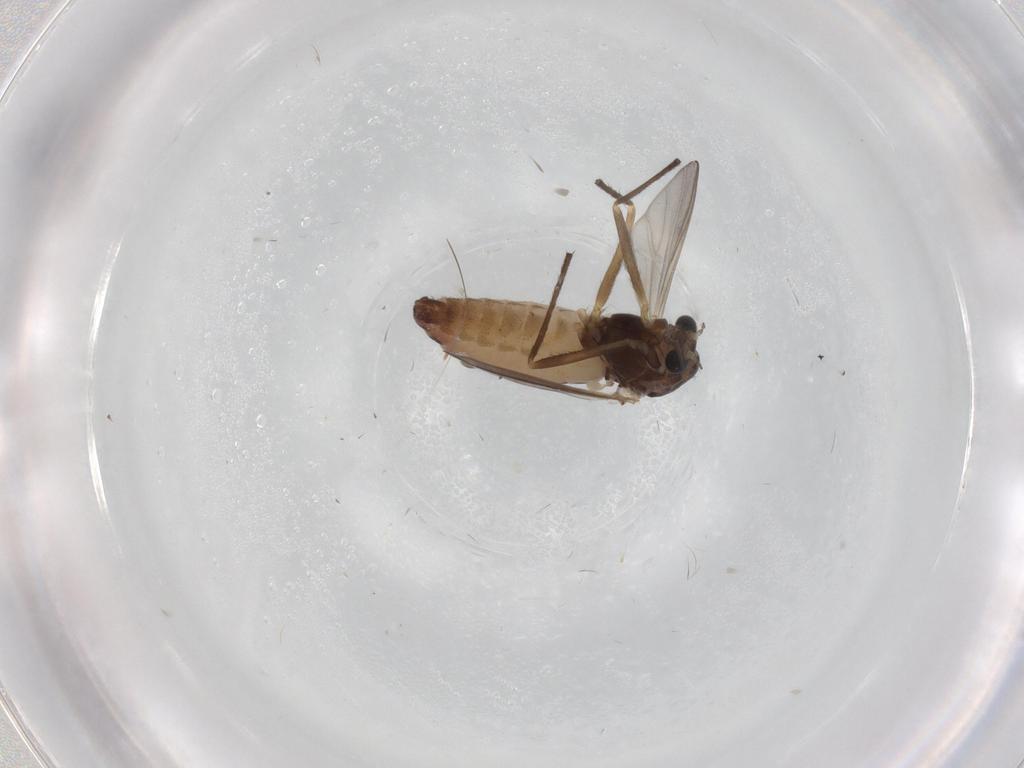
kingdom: Animalia
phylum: Arthropoda
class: Insecta
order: Diptera
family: Chironomidae
